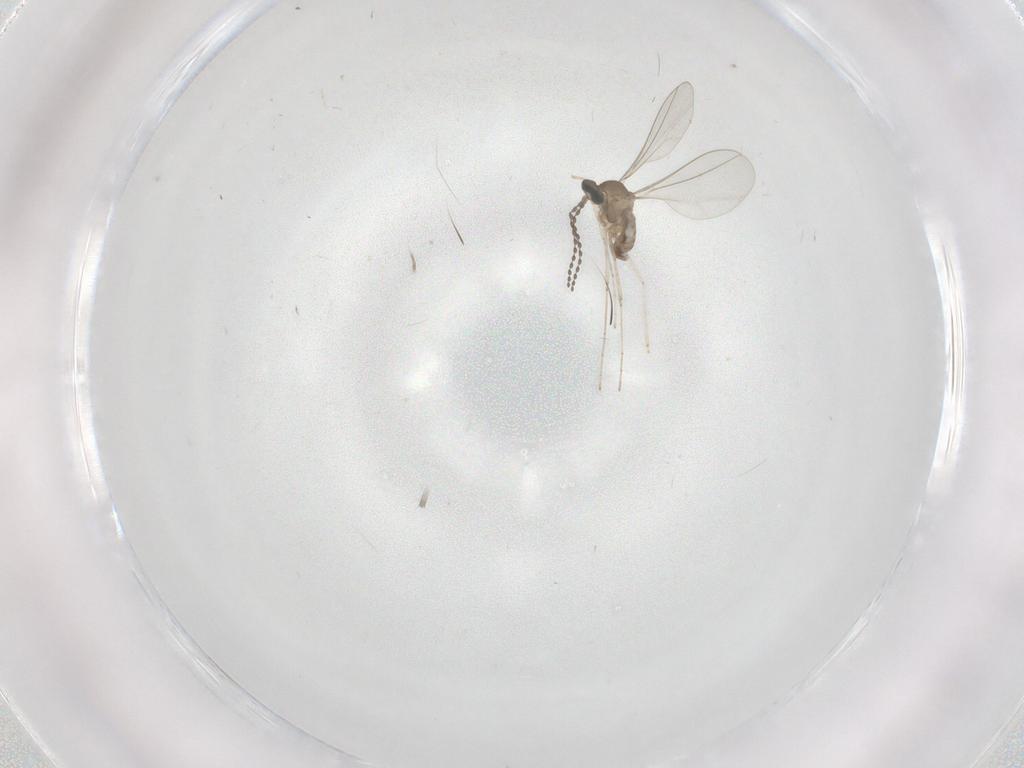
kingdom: Animalia
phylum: Arthropoda
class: Insecta
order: Diptera
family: Cecidomyiidae
